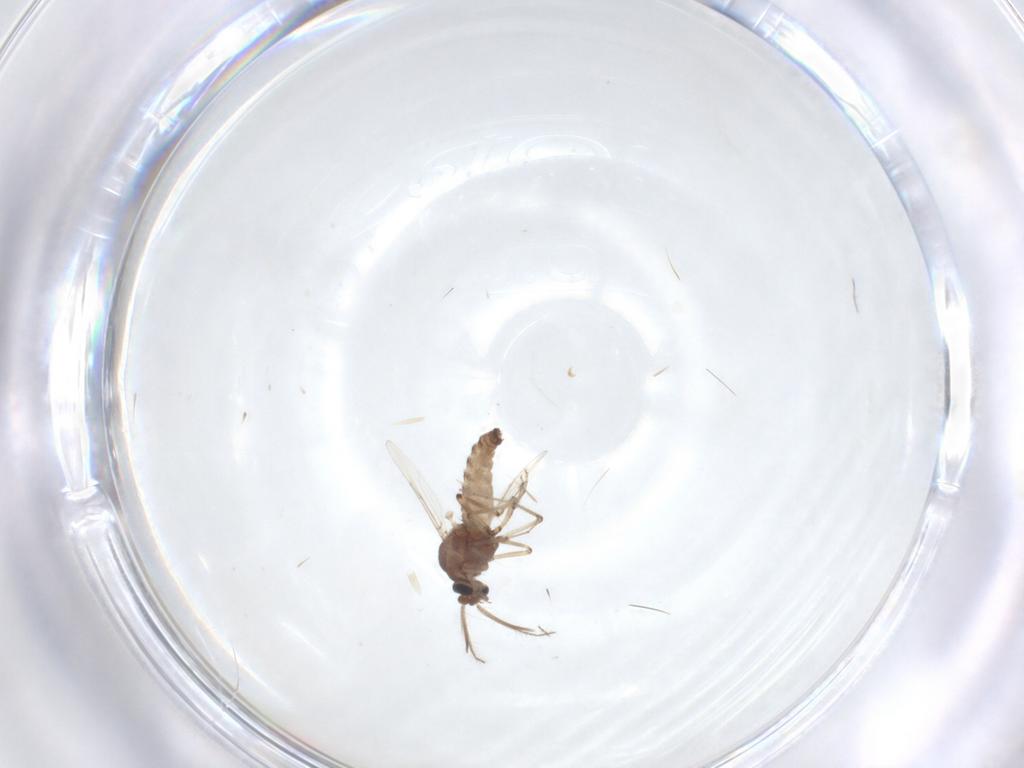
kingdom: Animalia
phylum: Arthropoda
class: Insecta
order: Diptera
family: Ceratopogonidae
